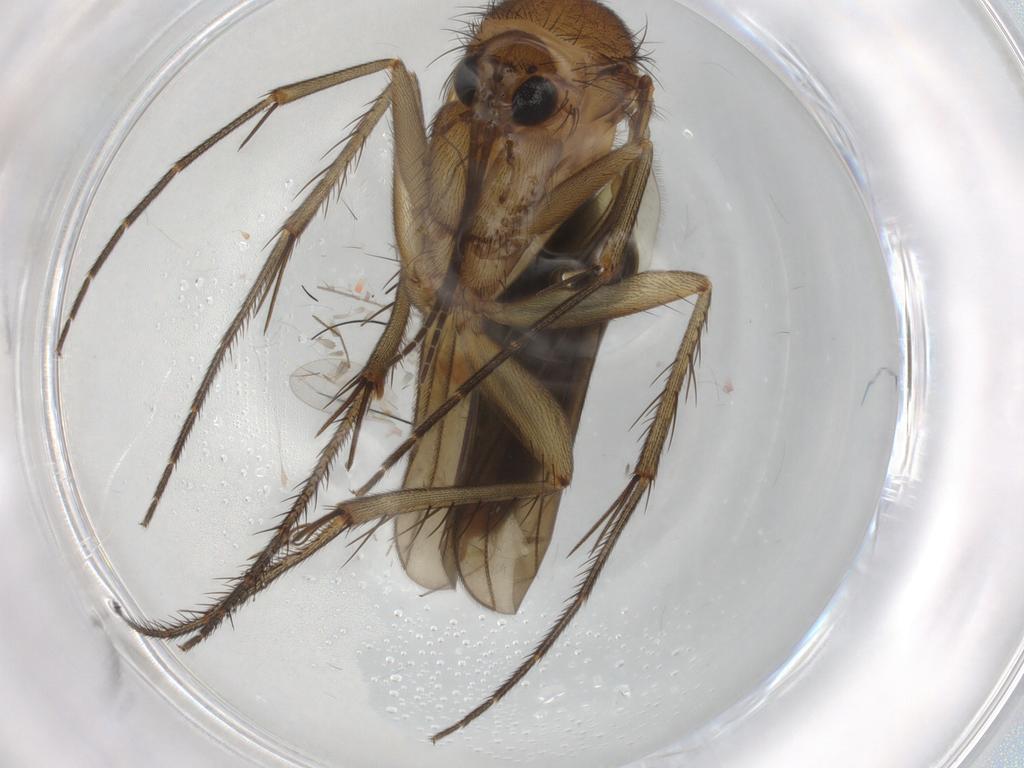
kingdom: Animalia
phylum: Arthropoda
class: Insecta
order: Diptera
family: Mycetophilidae
